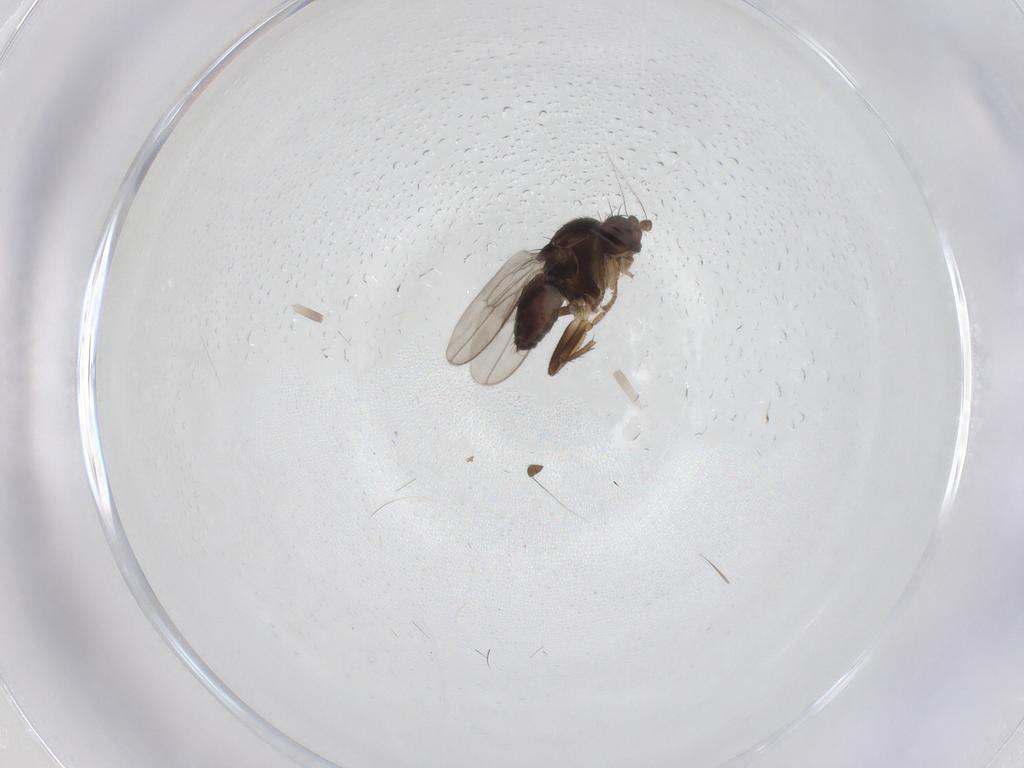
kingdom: Animalia
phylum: Arthropoda
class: Insecta
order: Diptera
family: Sphaeroceridae
